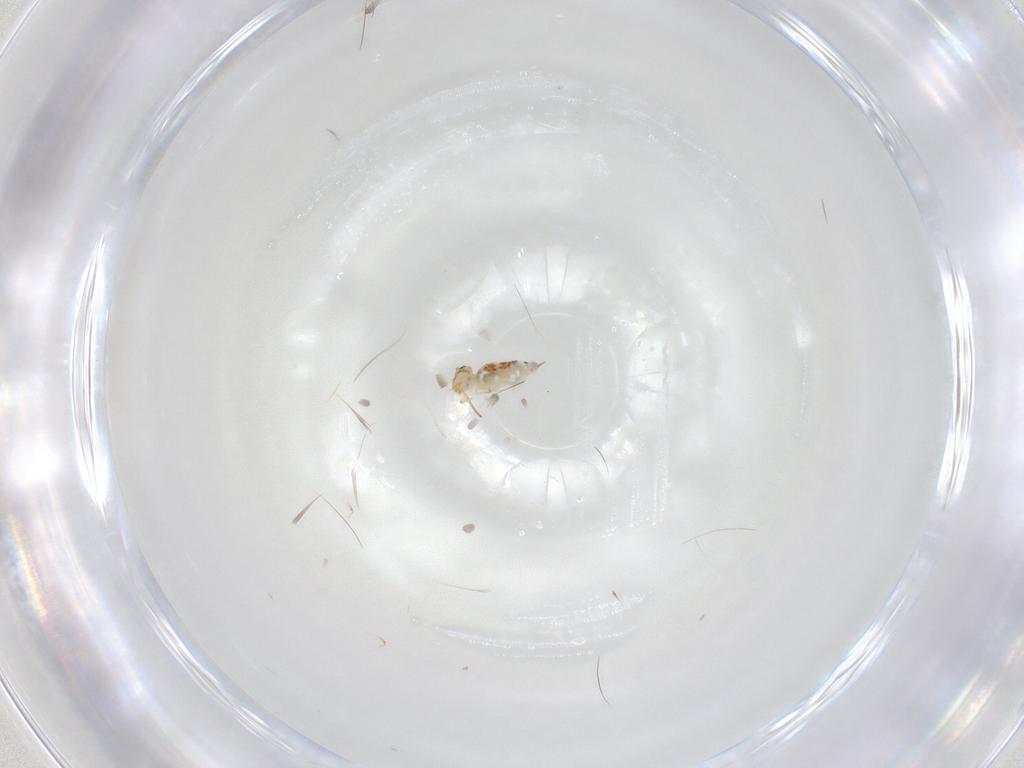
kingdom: Animalia
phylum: Arthropoda
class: Collembola
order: Symphypleona
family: Bourletiellidae
